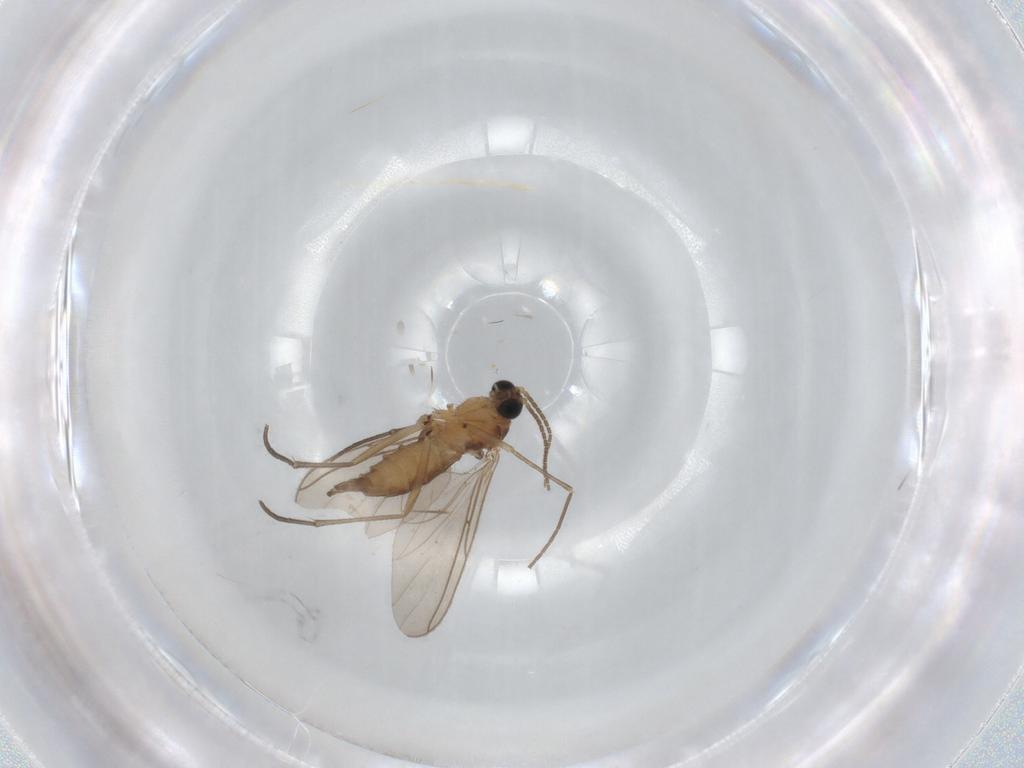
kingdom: Animalia
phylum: Arthropoda
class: Insecta
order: Diptera
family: Sciaridae
